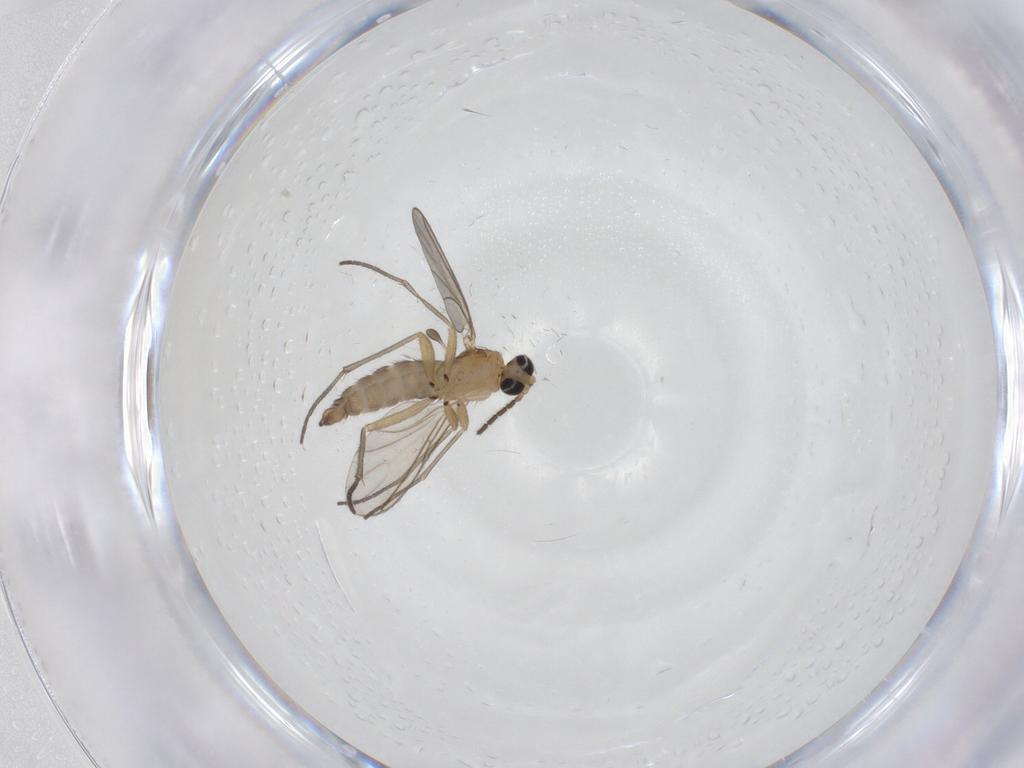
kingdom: Animalia
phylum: Arthropoda
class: Insecta
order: Diptera
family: Sciaridae
